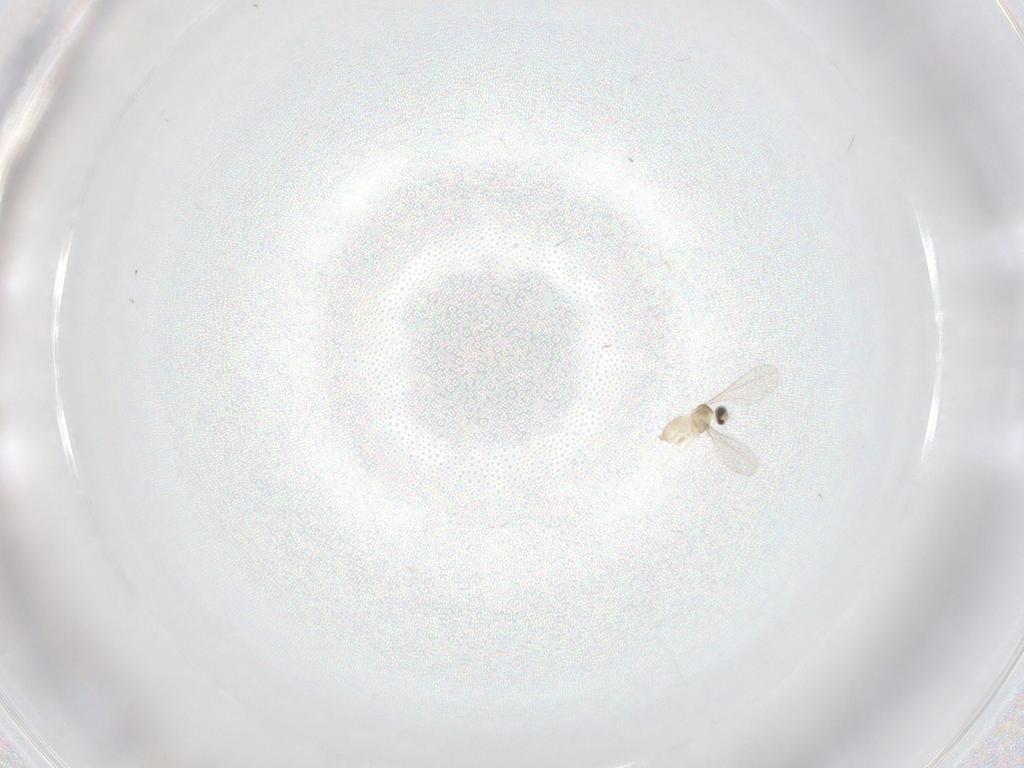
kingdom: Animalia
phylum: Arthropoda
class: Insecta
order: Diptera
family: Cecidomyiidae
